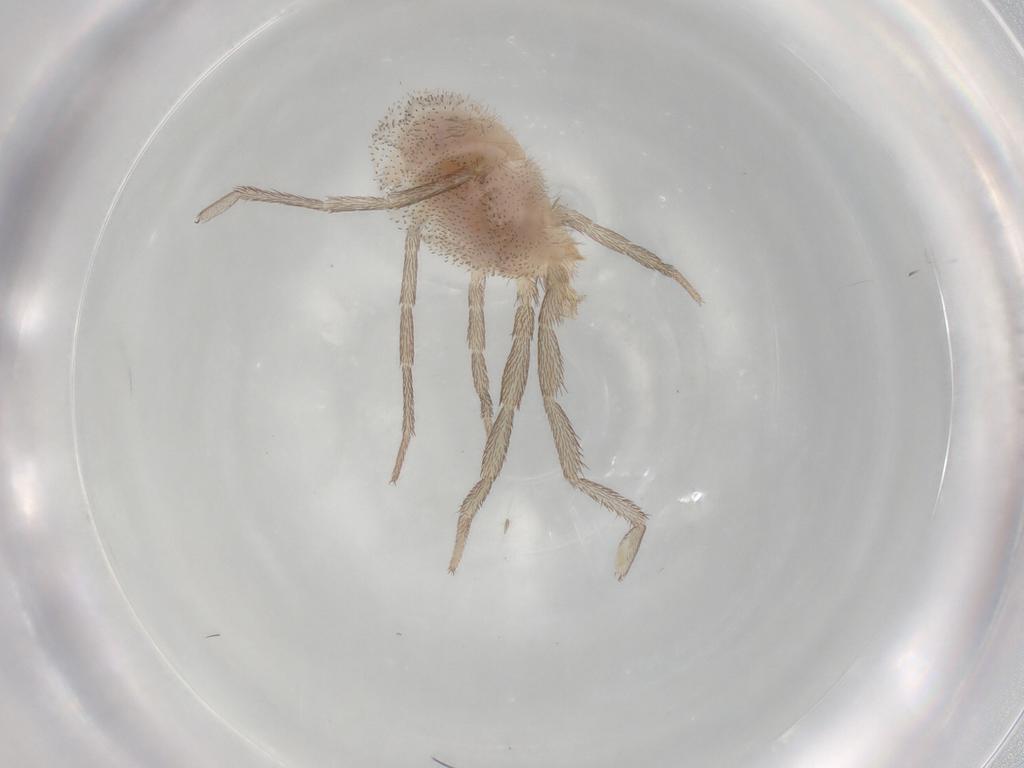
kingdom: Animalia
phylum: Arthropoda
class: Arachnida
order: Trombidiformes
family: Erythraeidae
